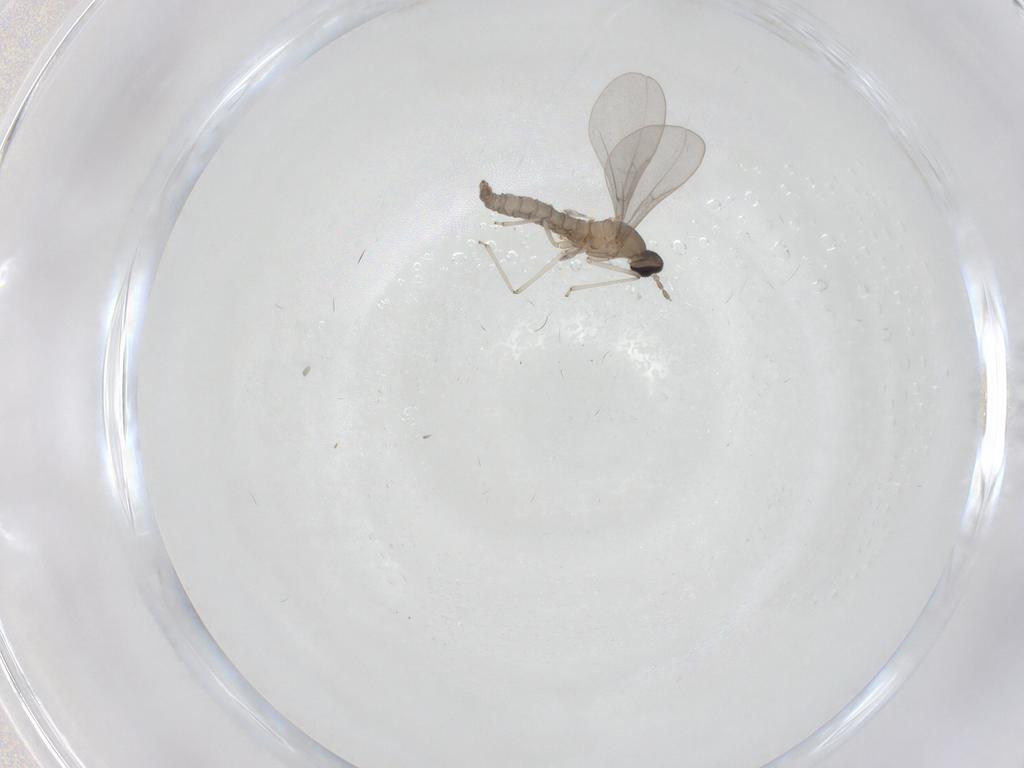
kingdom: Animalia
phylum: Arthropoda
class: Insecta
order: Diptera
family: Cecidomyiidae
